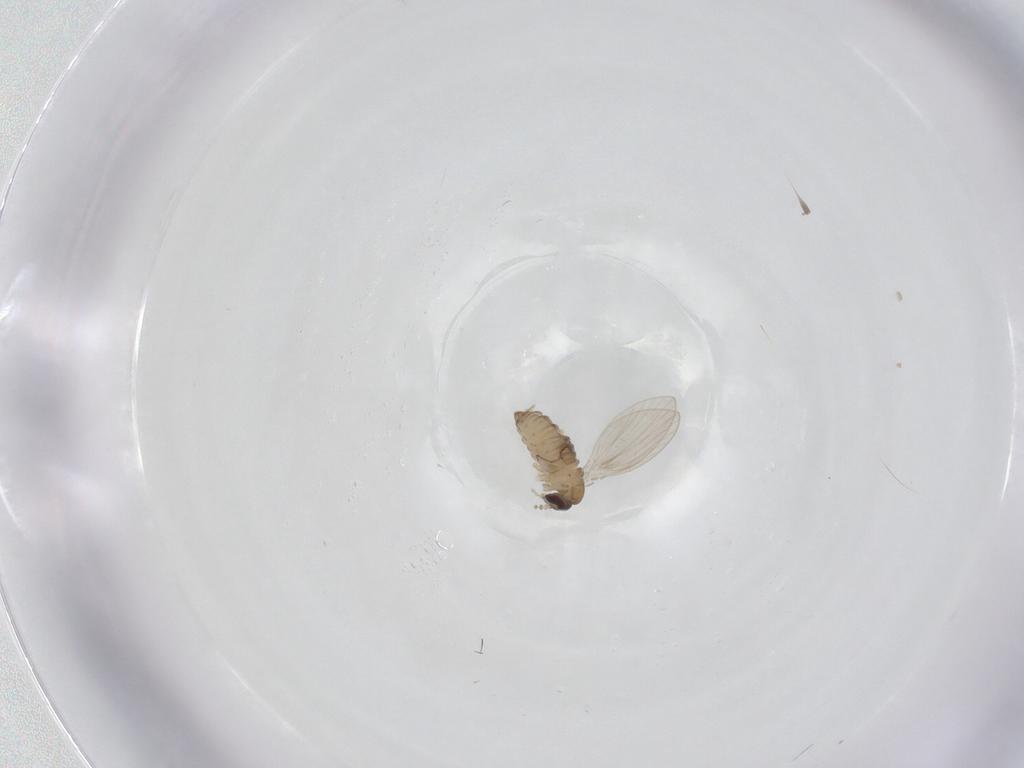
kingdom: Animalia
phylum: Arthropoda
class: Insecta
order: Diptera
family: Psychodidae
